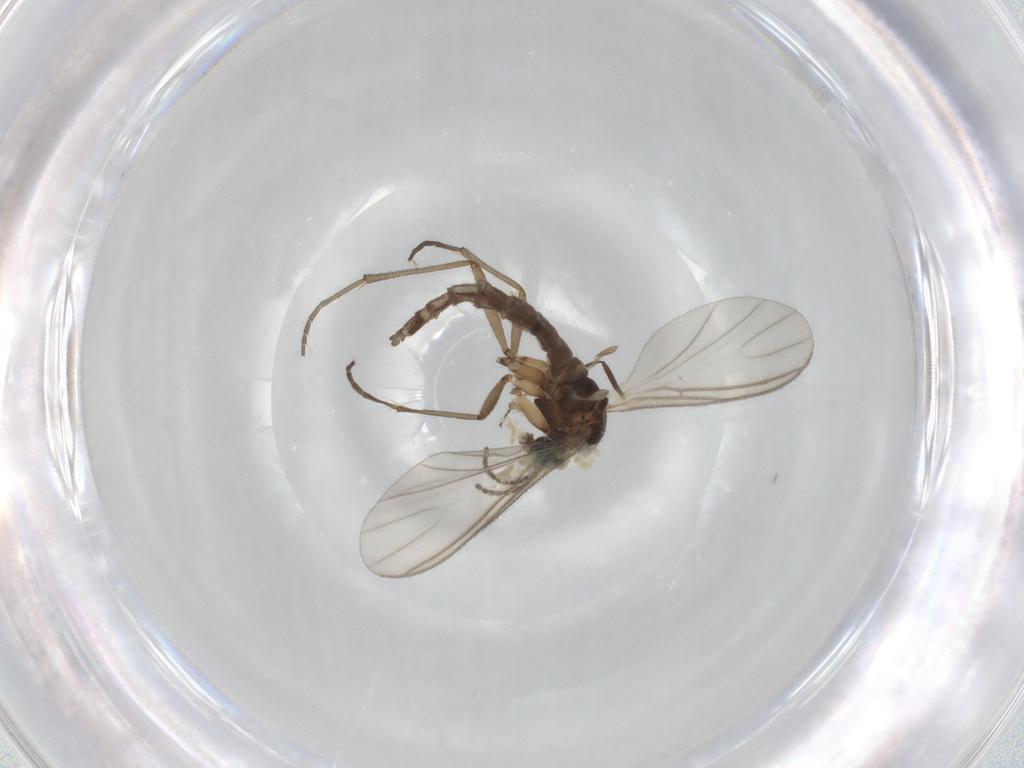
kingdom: Animalia
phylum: Arthropoda
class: Insecta
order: Diptera
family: Sciaridae
